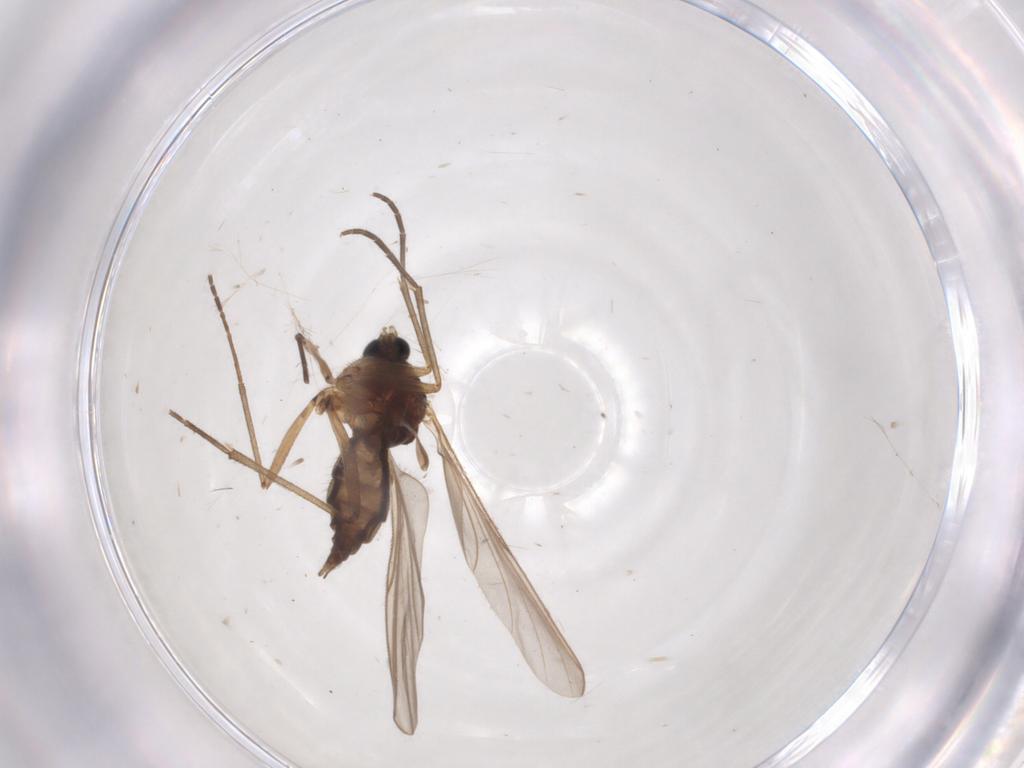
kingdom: Animalia
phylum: Arthropoda
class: Insecta
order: Diptera
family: Sciaridae
